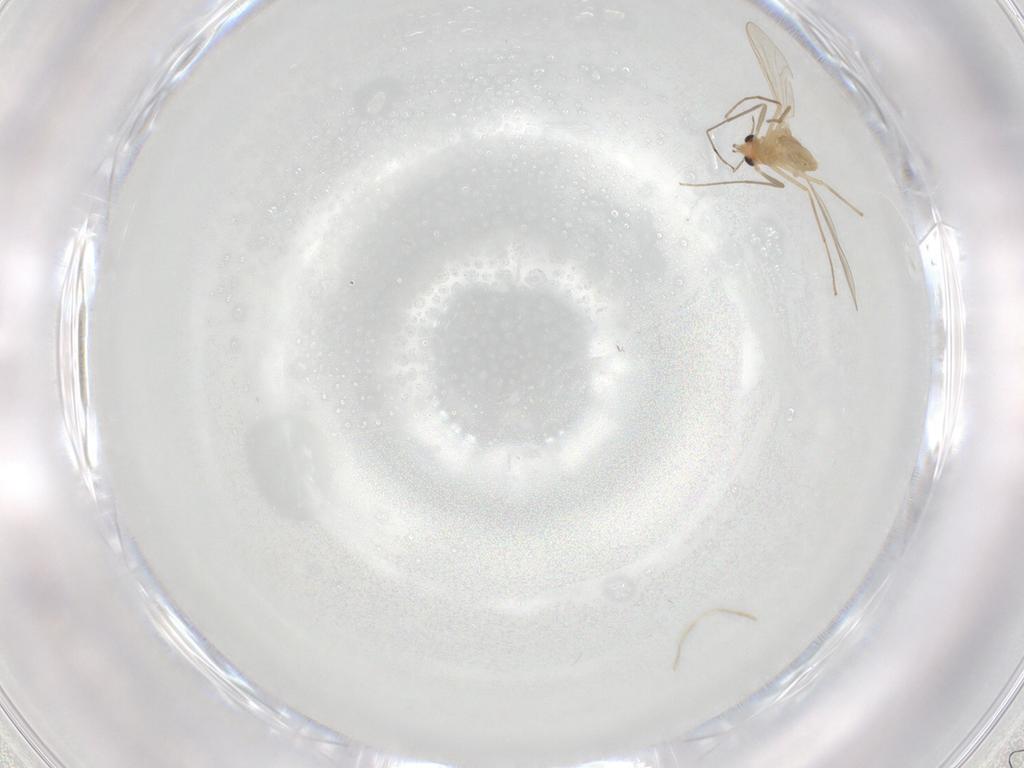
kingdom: Animalia
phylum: Arthropoda
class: Insecta
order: Diptera
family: Chironomidae
